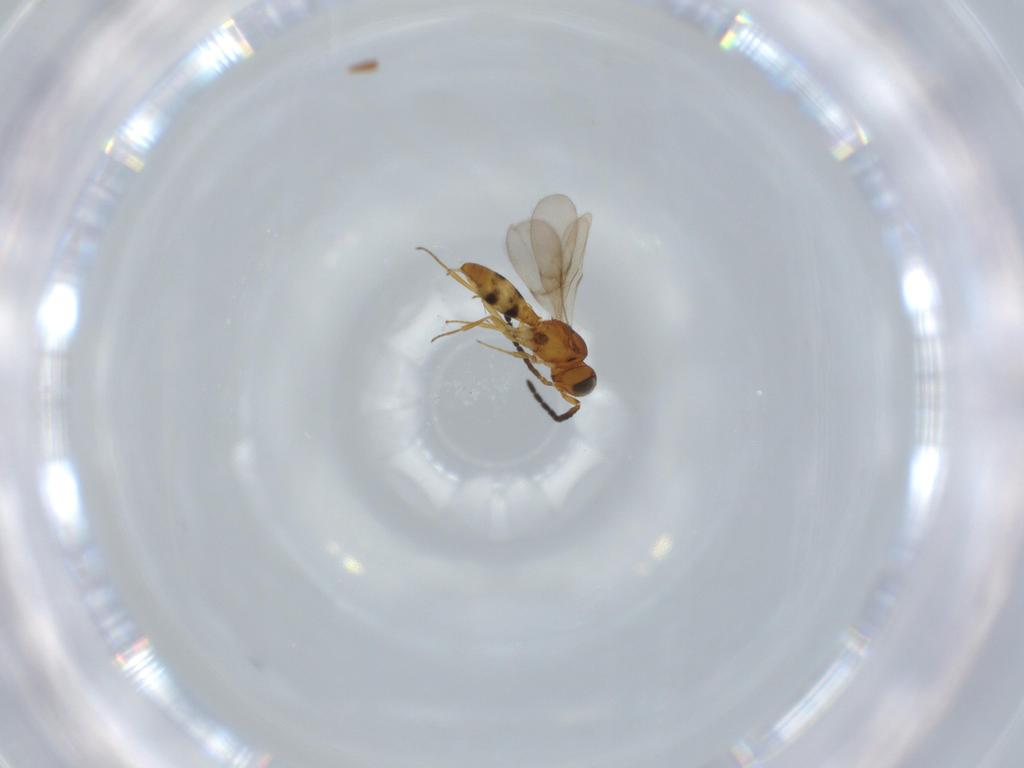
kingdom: Animalia
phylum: Arthropoda
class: Insecta
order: Hymenoptera
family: Scelionidae
